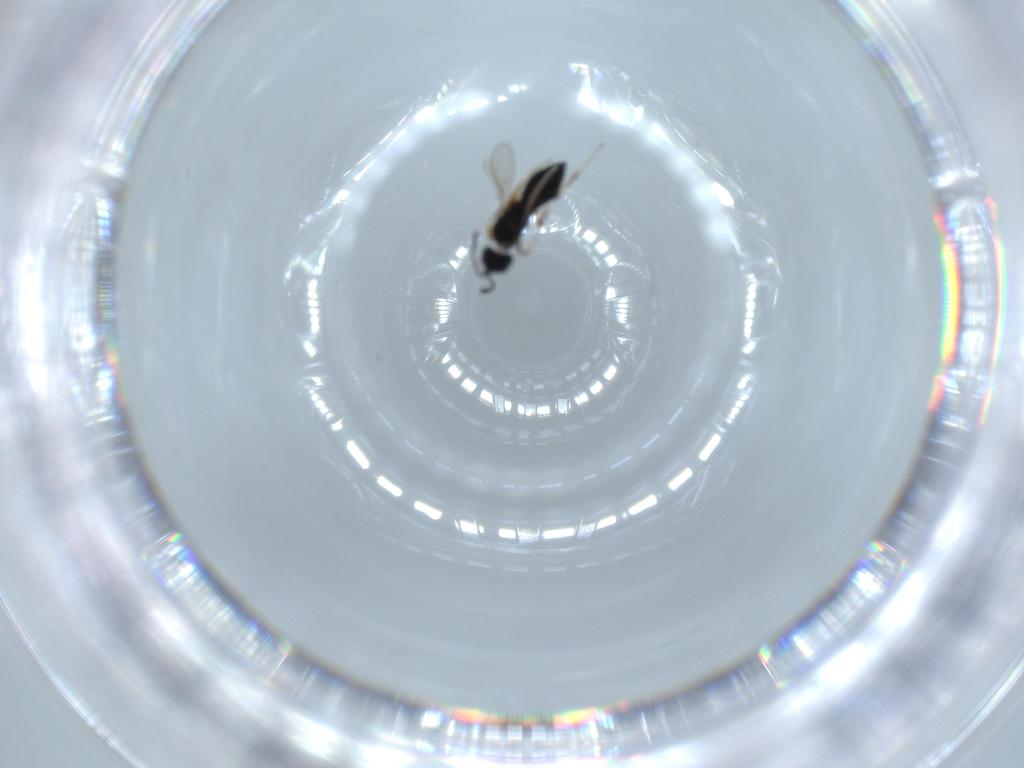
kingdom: Animalia
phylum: Arthropoda
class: Insecta
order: Hymenoptera
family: Scelionidae
